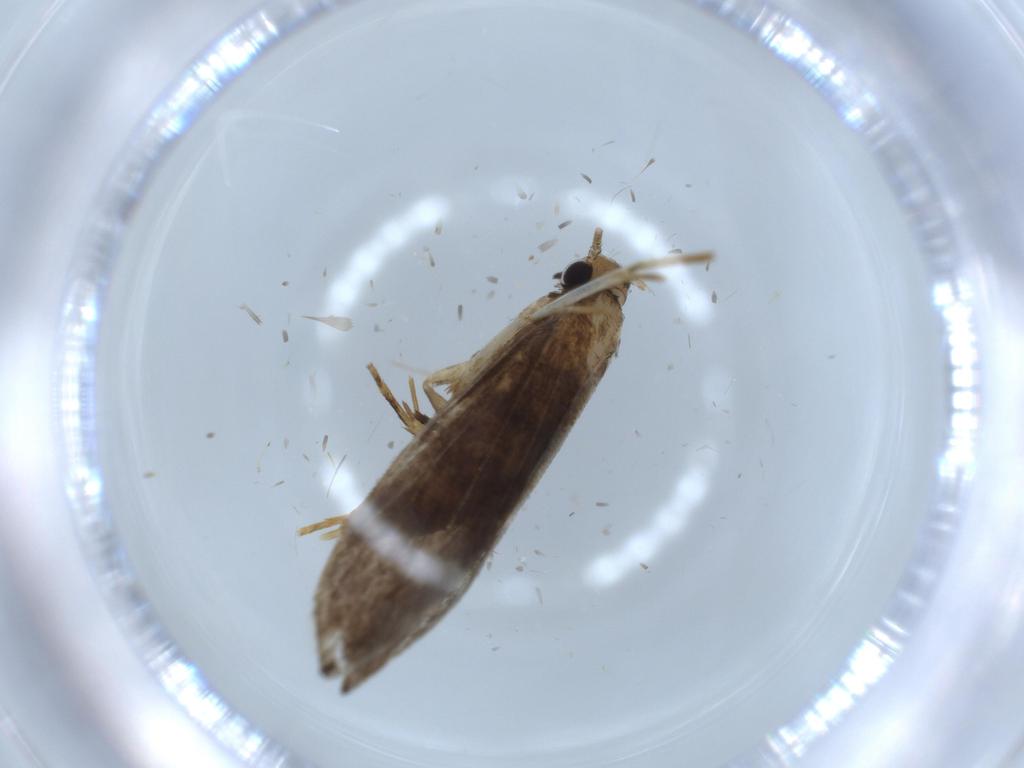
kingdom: Animalia
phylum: Arthropoda
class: Insecta
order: Lepidoptera
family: Tineidae
